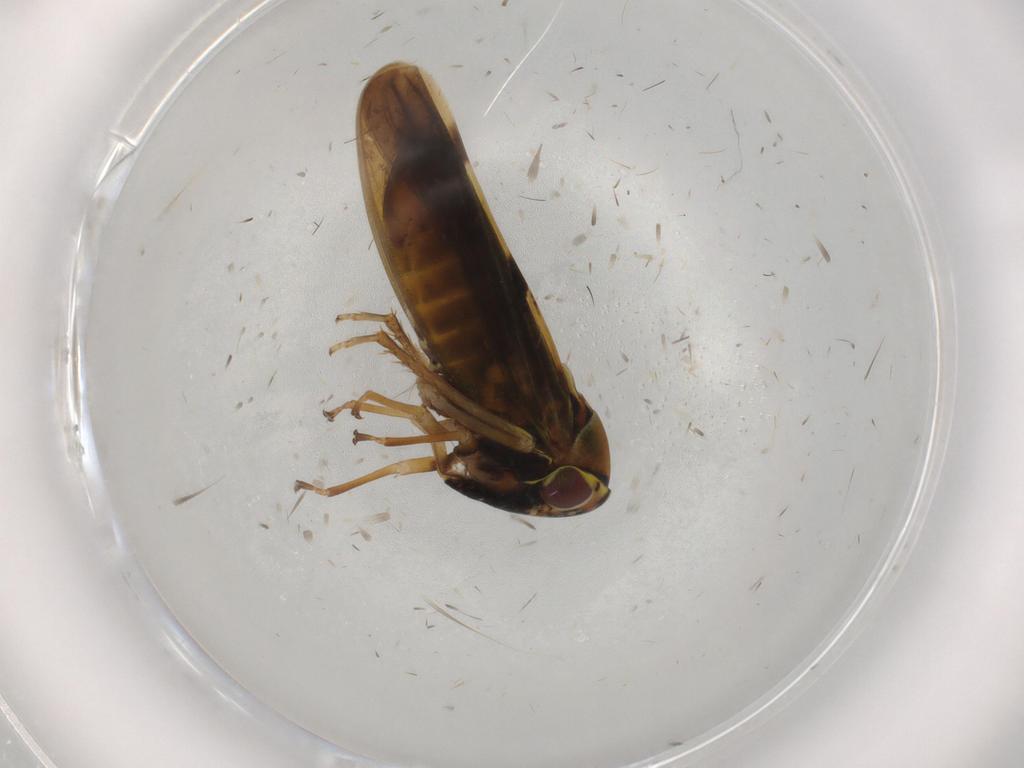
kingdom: Animalia
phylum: Arthropoda
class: Insecta
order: Hemiptera
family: Cicadellidae
